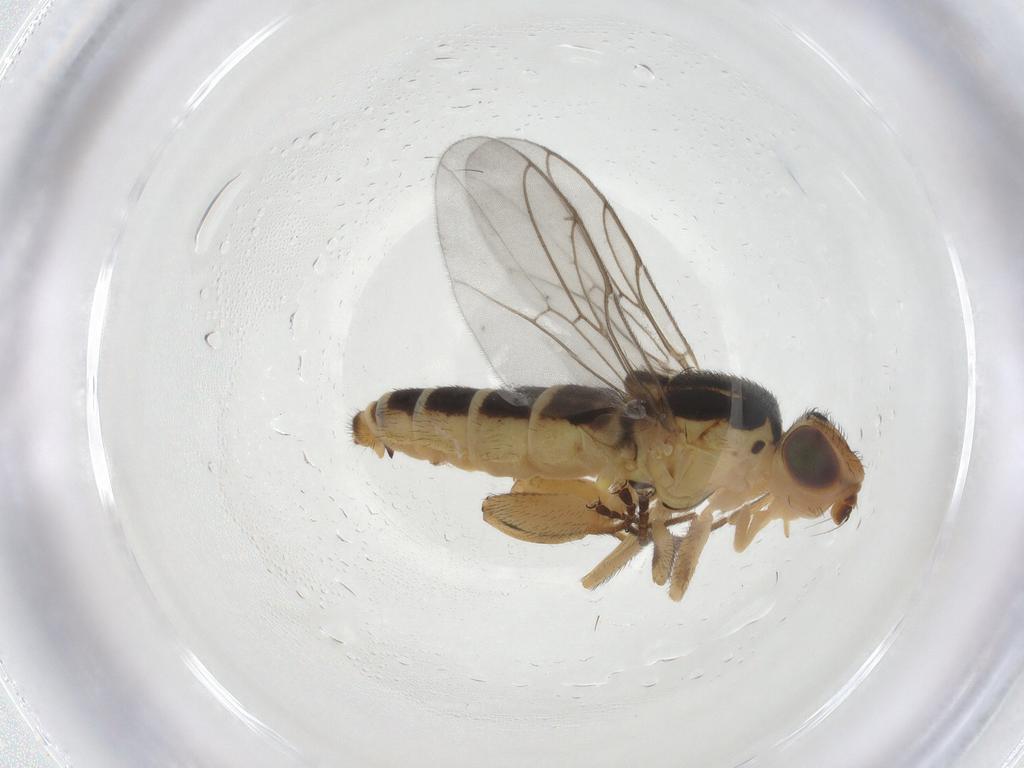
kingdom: Animalia
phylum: Arthropoda
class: Insecta
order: Diptera
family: Chloropidae
